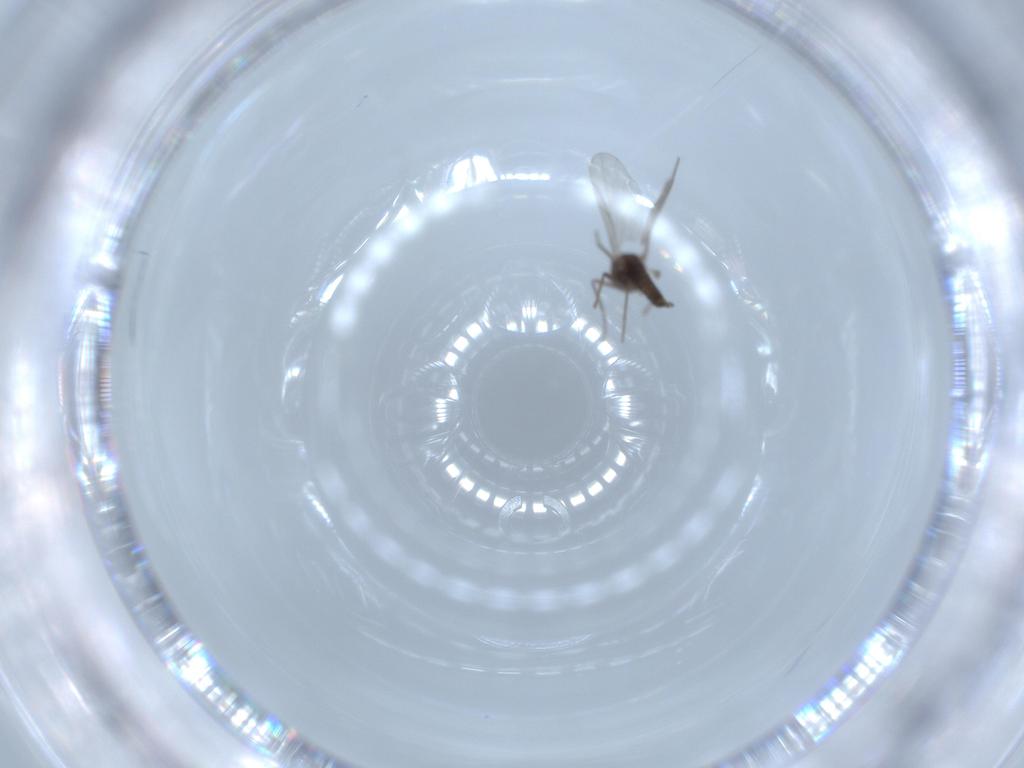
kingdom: Animalia
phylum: Arthropoda
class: Insecta
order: Diptera
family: Cecidomyiidae
